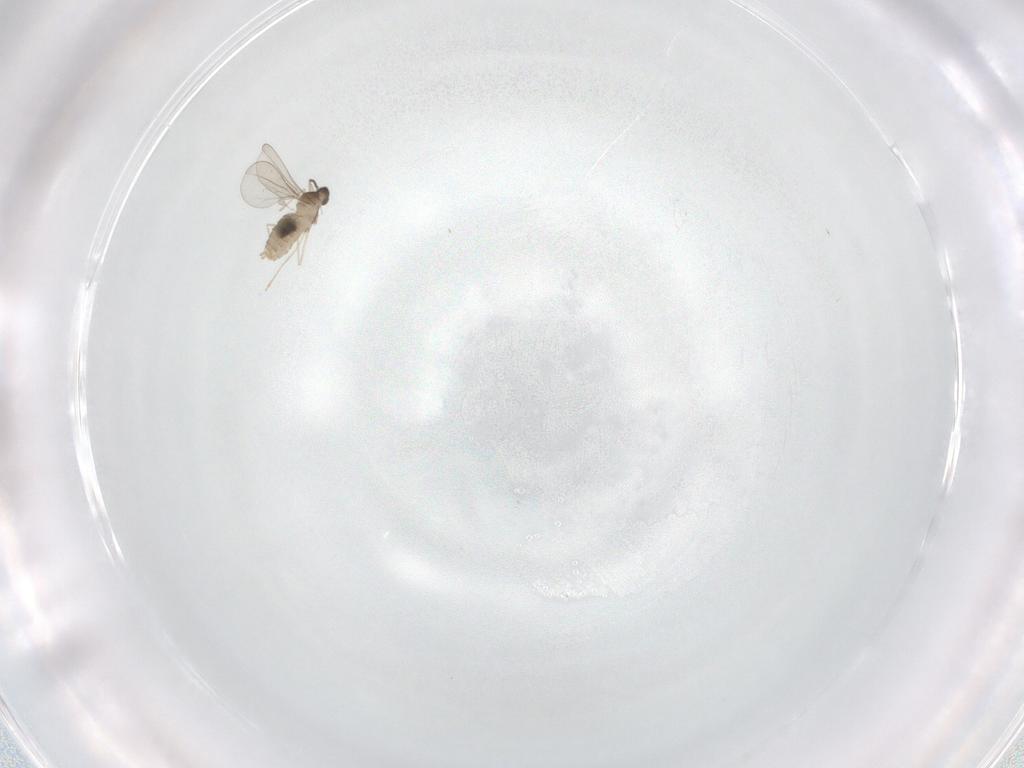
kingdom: Animalia
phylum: Arthropoda
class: Insecta
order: Diptera
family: Cecidomyiidae
